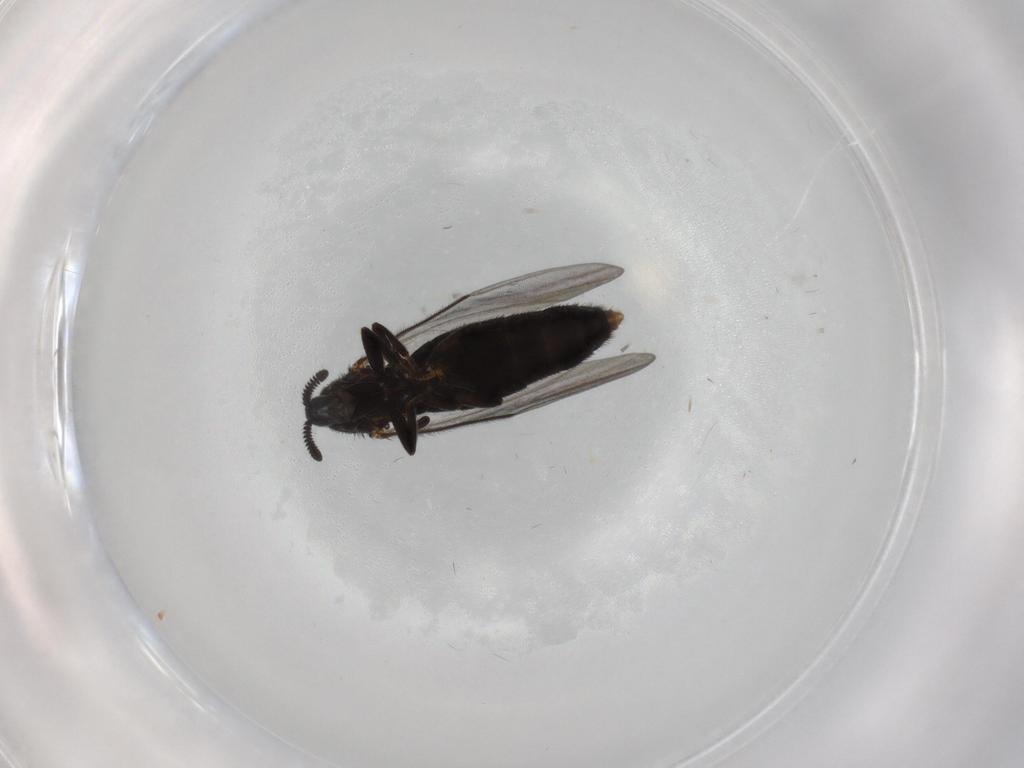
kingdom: Animalia
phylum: Arthropoda
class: Insecta
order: Diptera
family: Scatopsidae
